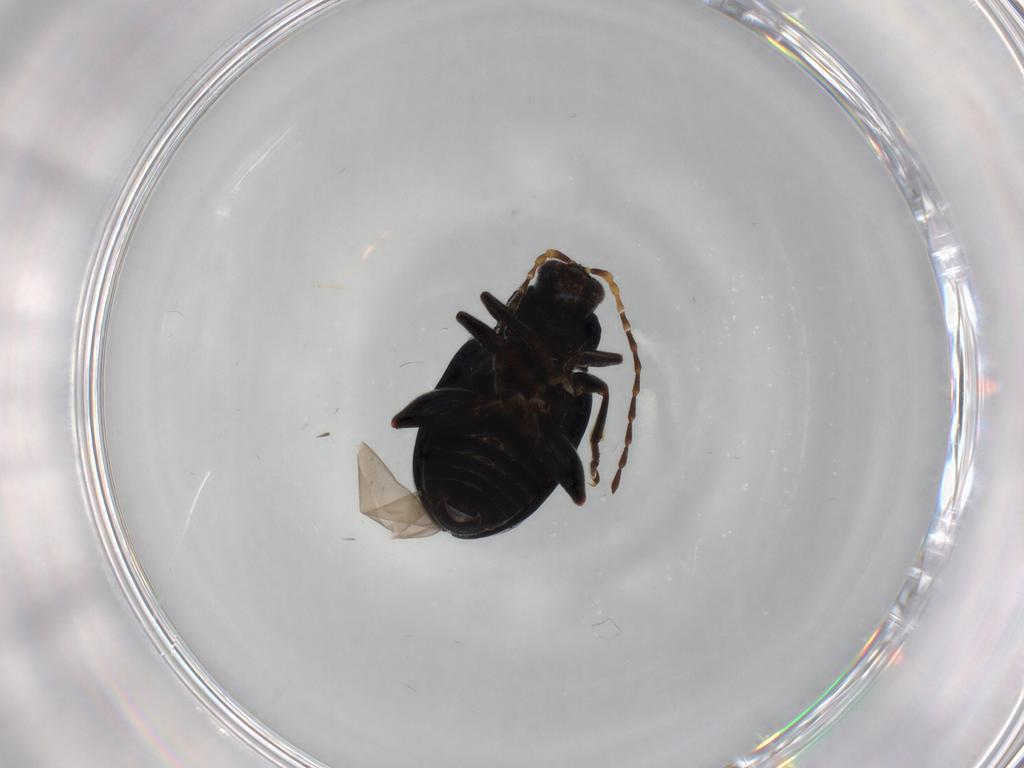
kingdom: Animalia
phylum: Arthropoda
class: Insecta
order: Coleoptera
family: Chrysomelidae
